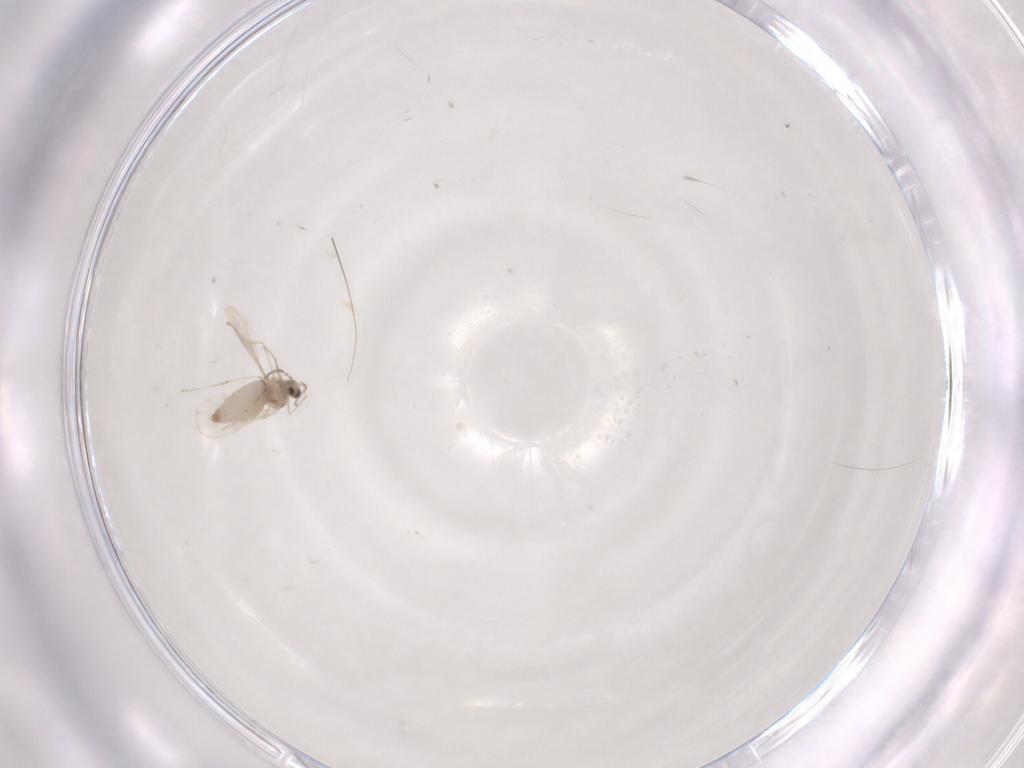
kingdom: Animalia
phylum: Arthropoda
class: Insecta
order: Diptera
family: Cecidomyiidae
